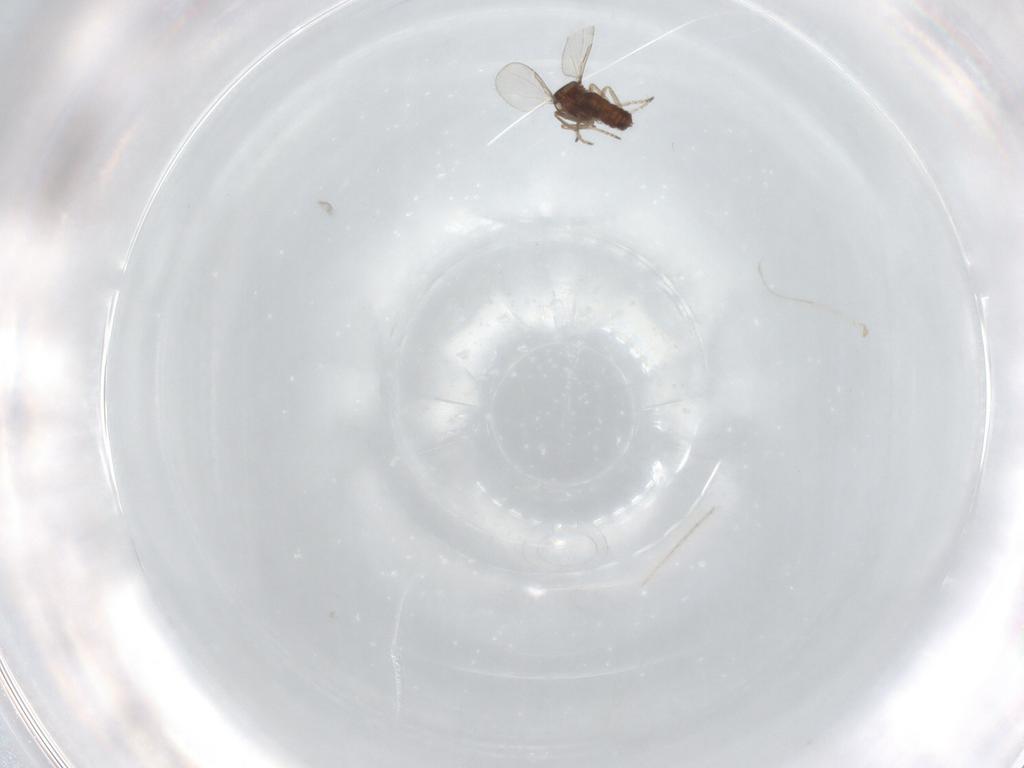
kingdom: Animalia
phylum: Arthropoda
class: Insecta
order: Diptera
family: Ceratopogonidae
